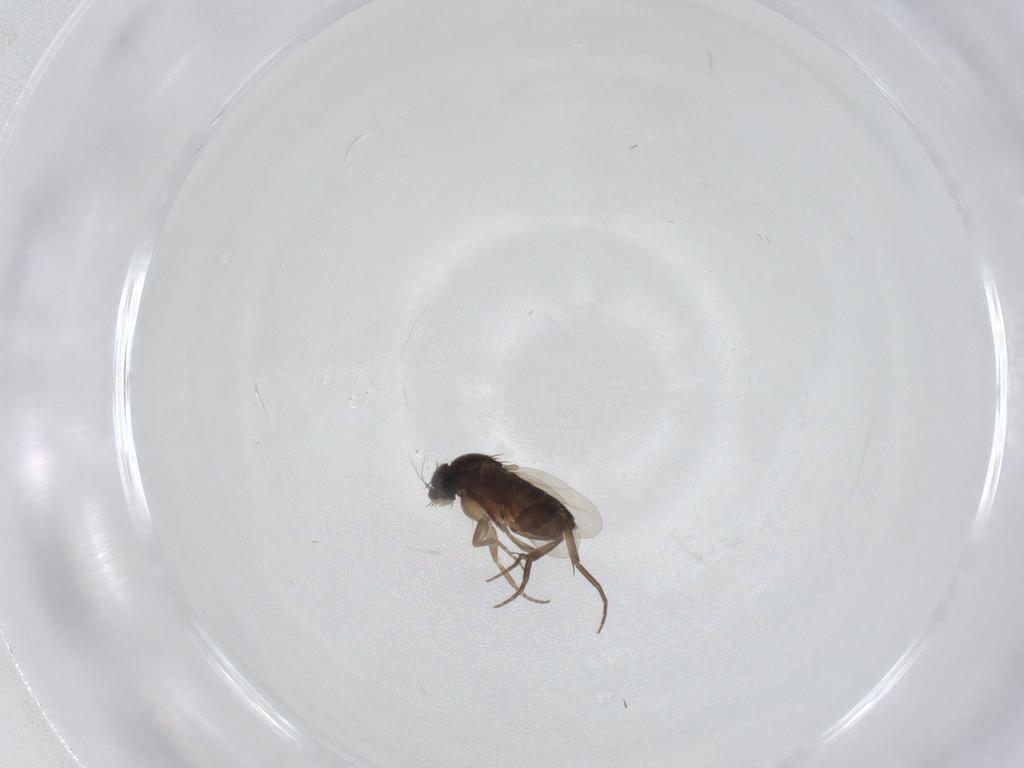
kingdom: Animalia
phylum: Arthropoda
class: Insecta
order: Diptera
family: Phoridae
